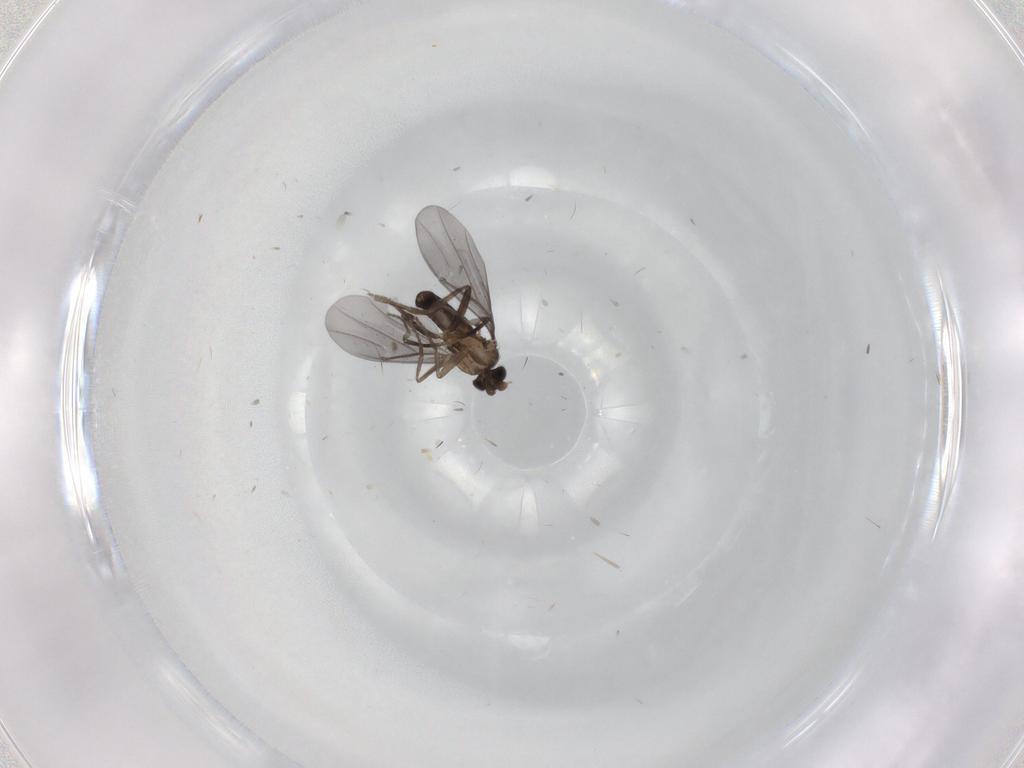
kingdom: Animalia
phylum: Arthropoda
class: Insecta
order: Diptera
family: Phoridae
